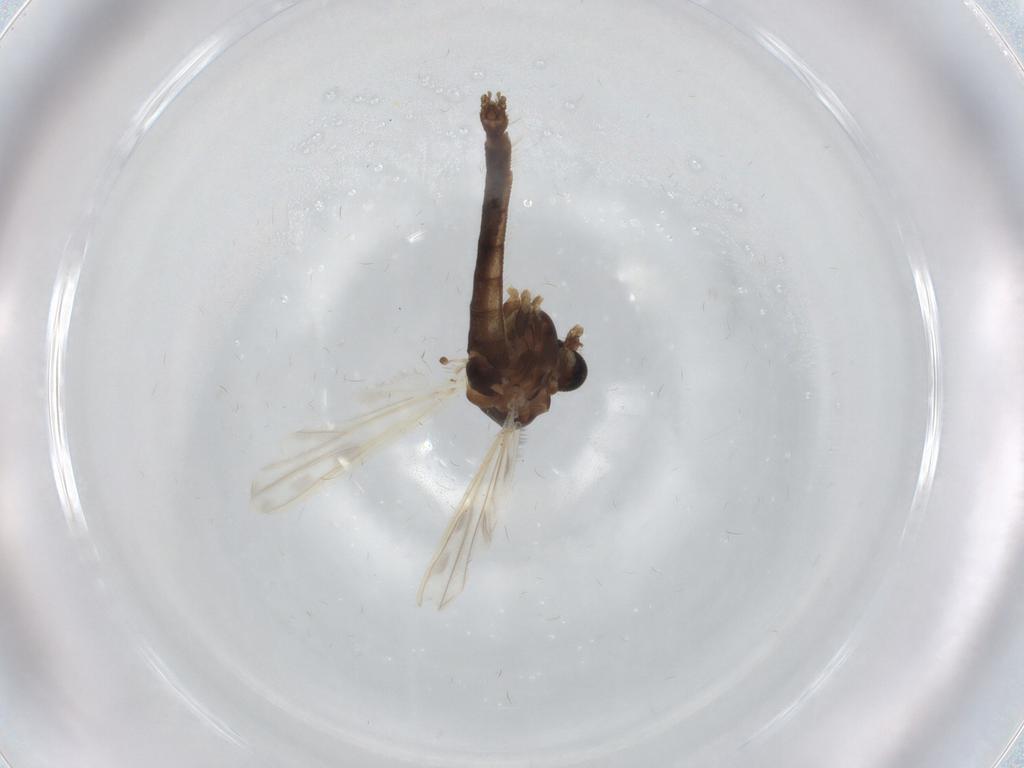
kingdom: Animalia
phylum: Arthropoda
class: Insecta
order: Diptera
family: Chironomidae
